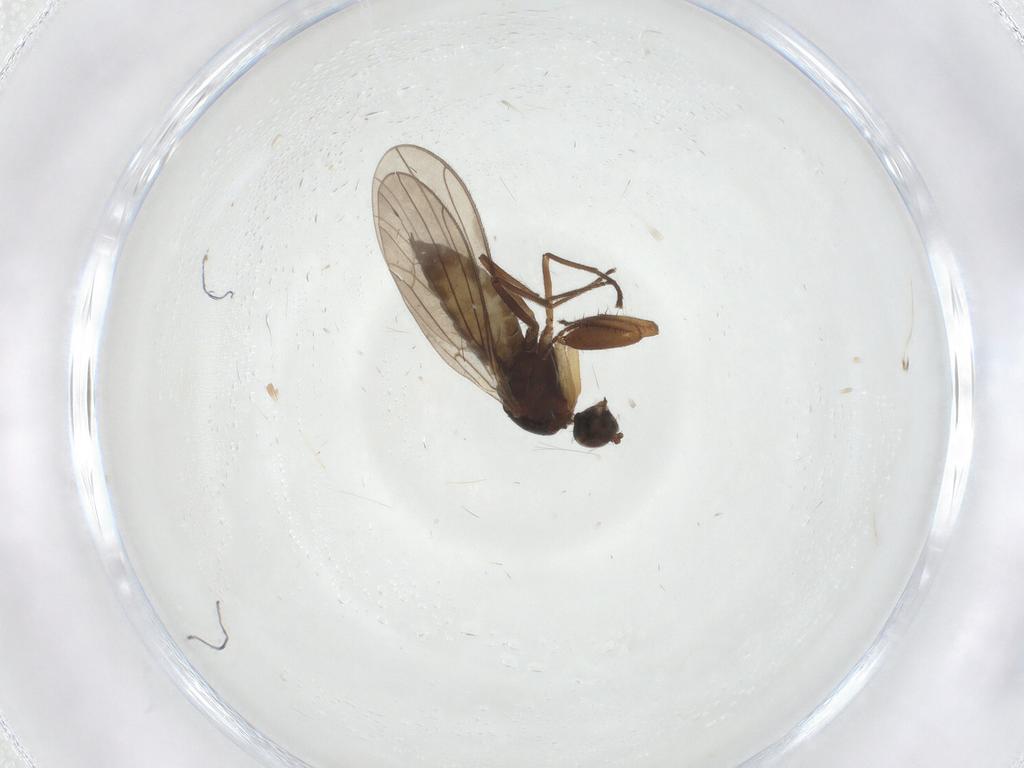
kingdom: Animalia
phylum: Arthropoda
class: Insecta
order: Diptera
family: Empididae
